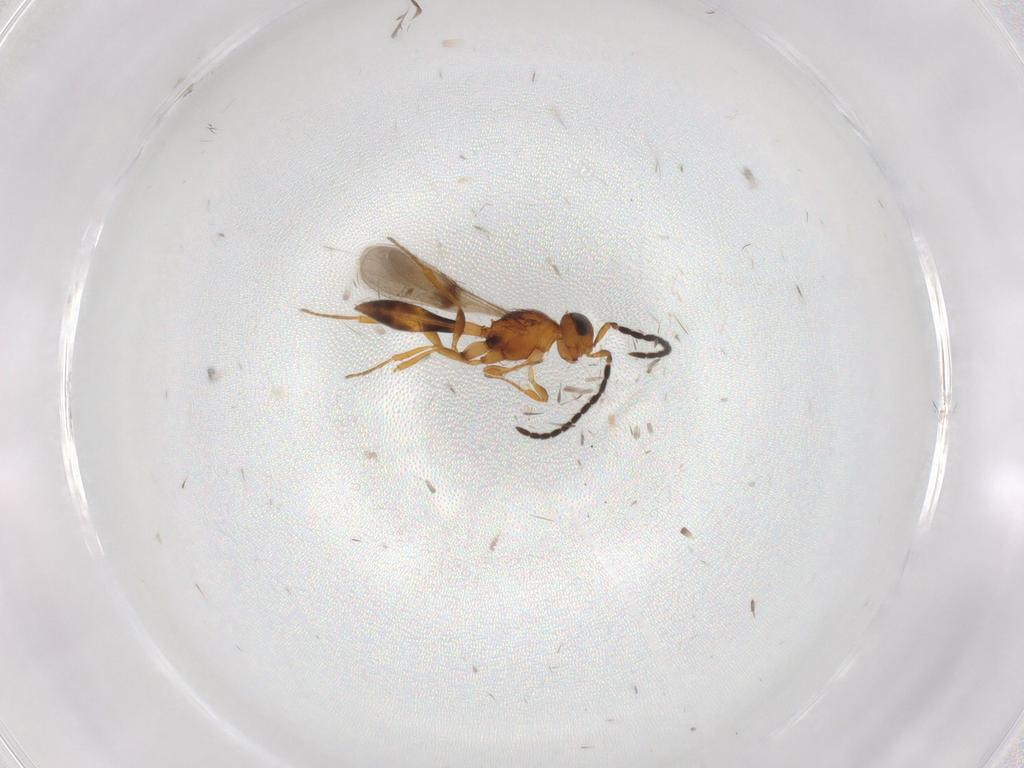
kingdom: Animalia
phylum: Arthropoda
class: Insecta
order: Hymenoptera
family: Scelionidae
